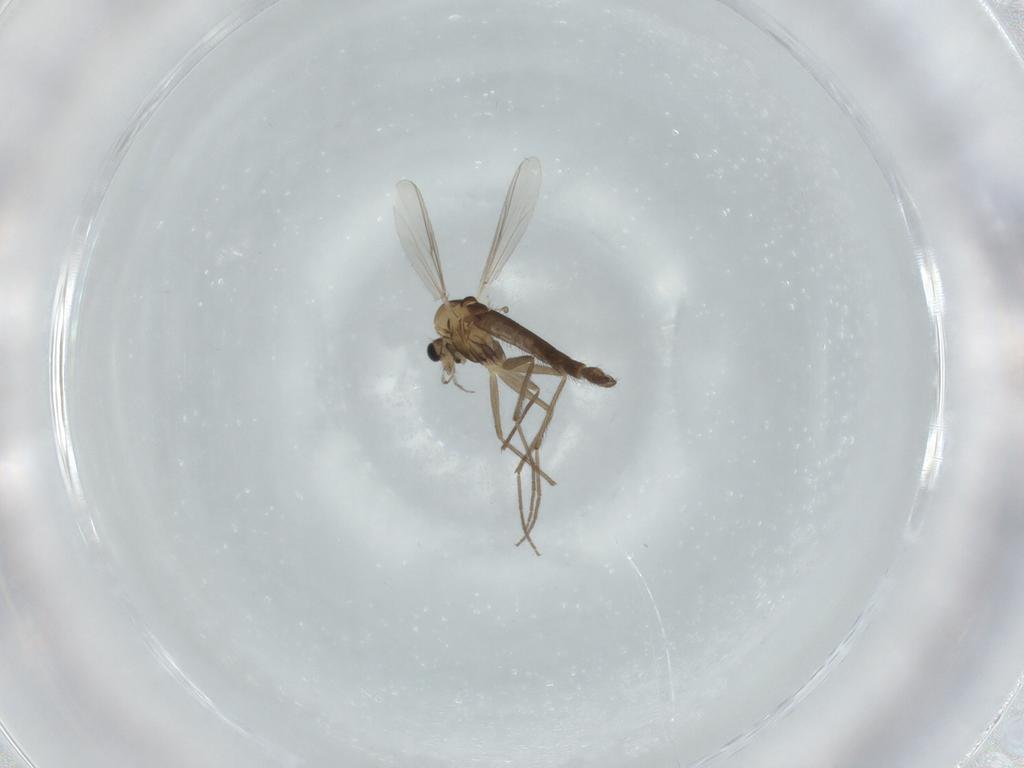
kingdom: Animalia
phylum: Arthropoda
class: Insecta
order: Diptera
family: Chironomidae
